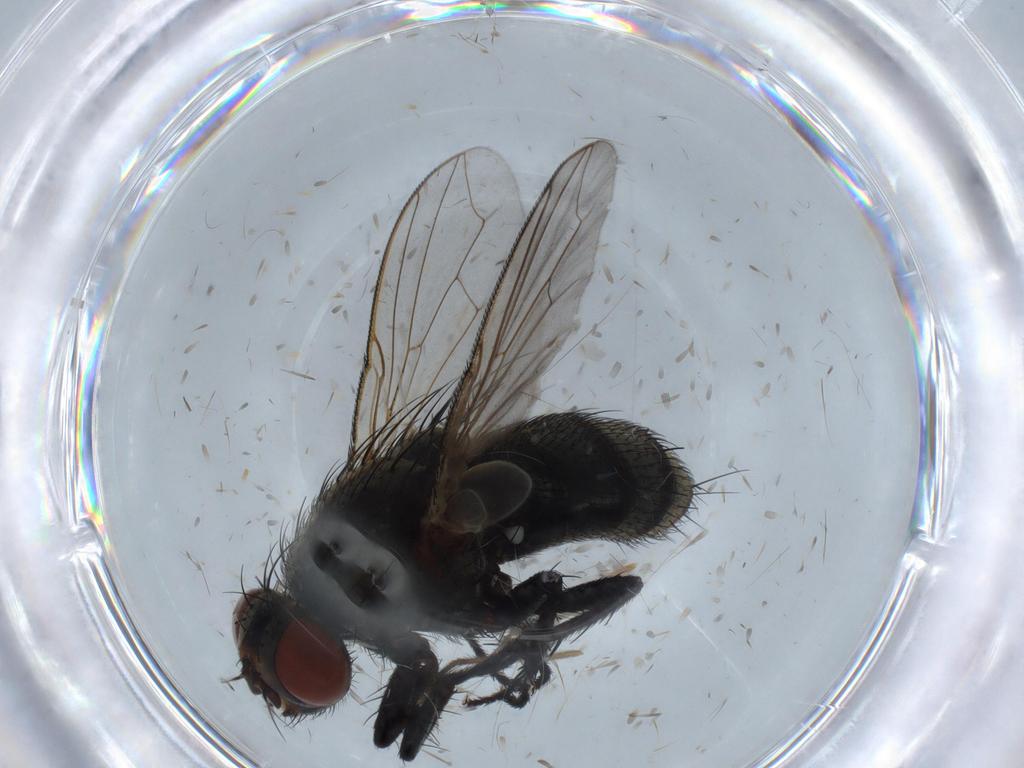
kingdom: Animalia
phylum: Arthropoda
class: Insecta
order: Diptera
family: Sarcophagidae
